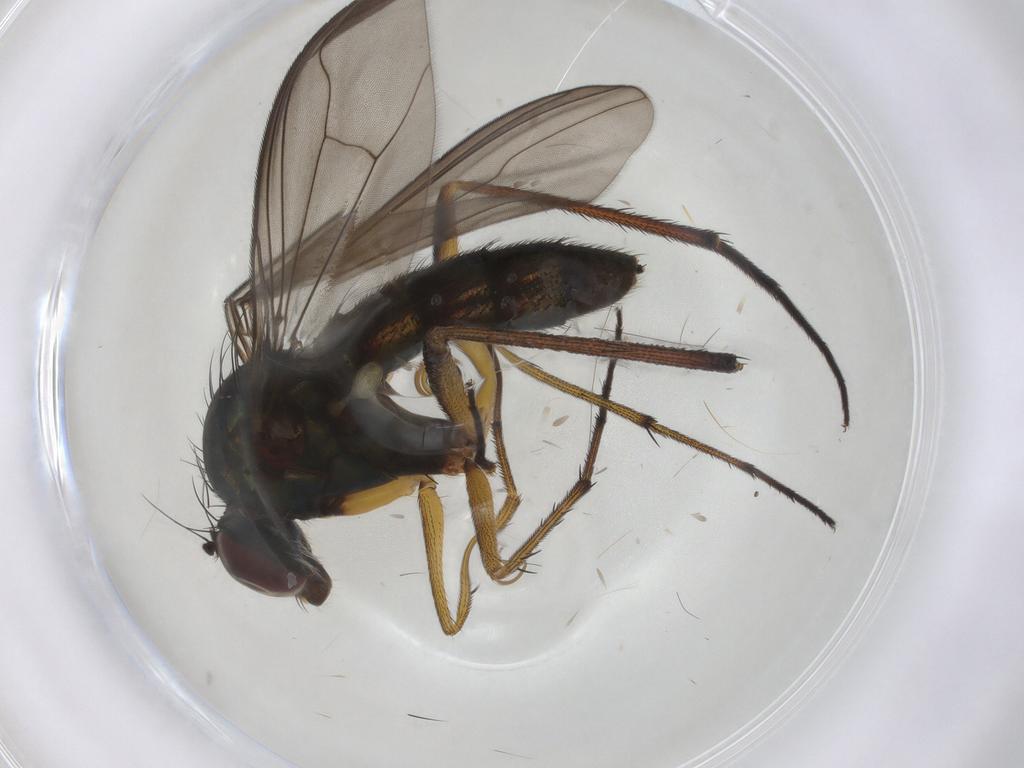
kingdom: Animalia
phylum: Arthropoda
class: Insecta
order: Diptera
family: Dolichopodidae
